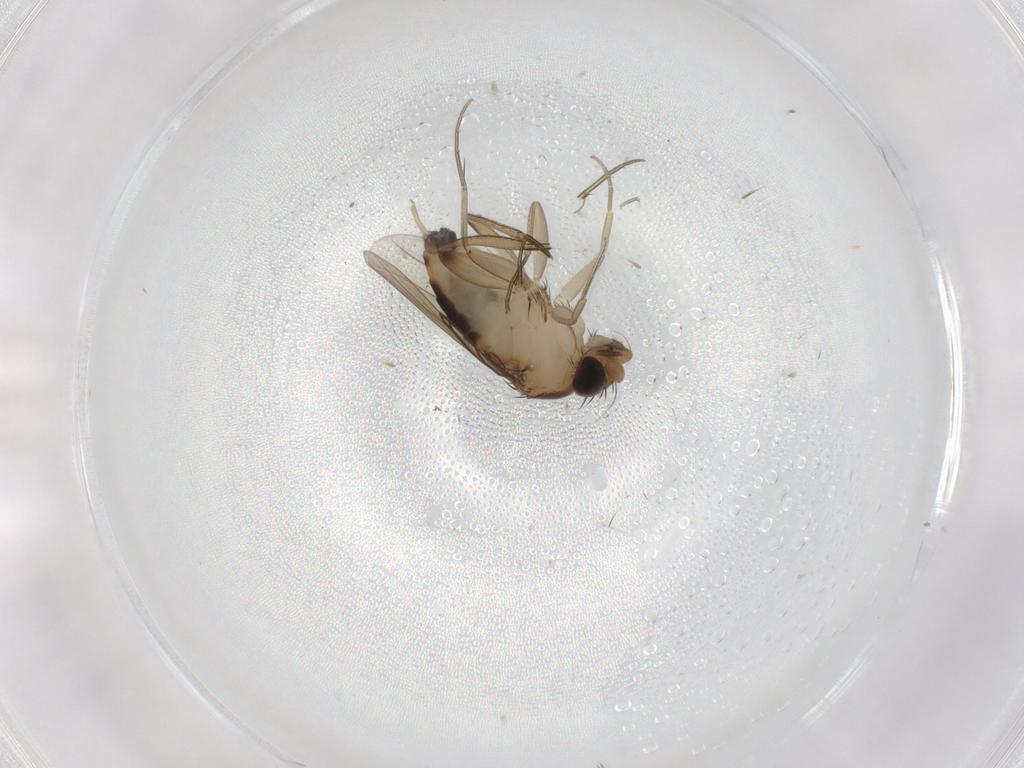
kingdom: Animalia
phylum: Arthropoda
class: Insecta
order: Diptera
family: Phoridae
